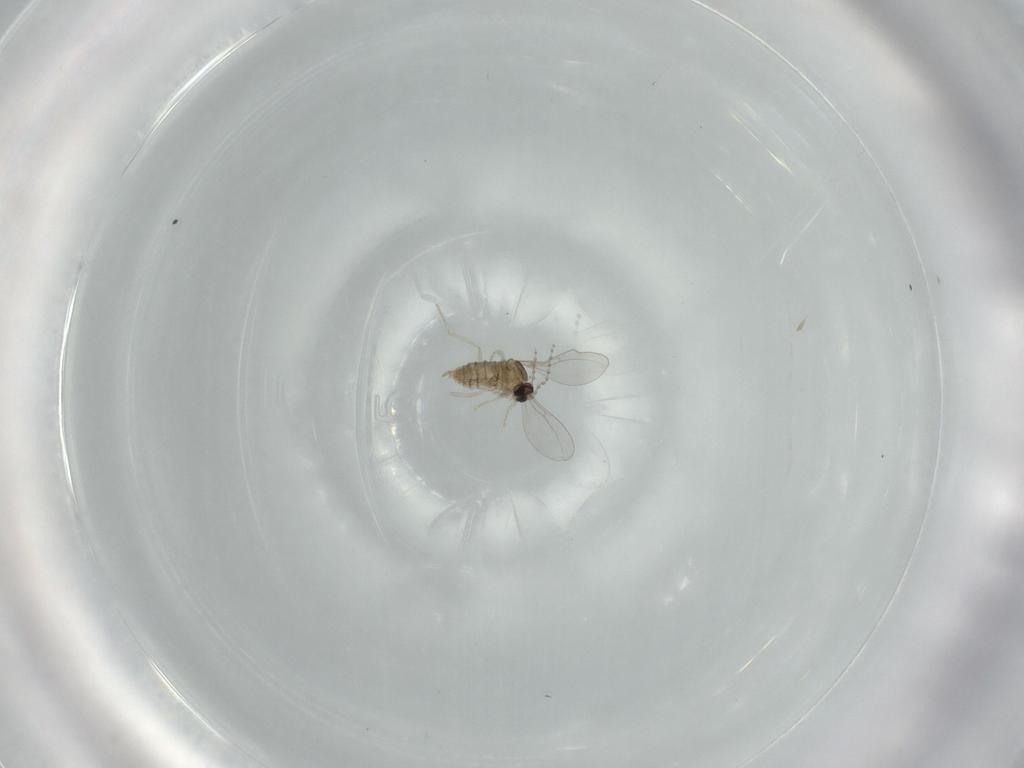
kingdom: Animalia
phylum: Arthropoda
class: Insecta
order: Diptera
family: Cecidomyiidae
